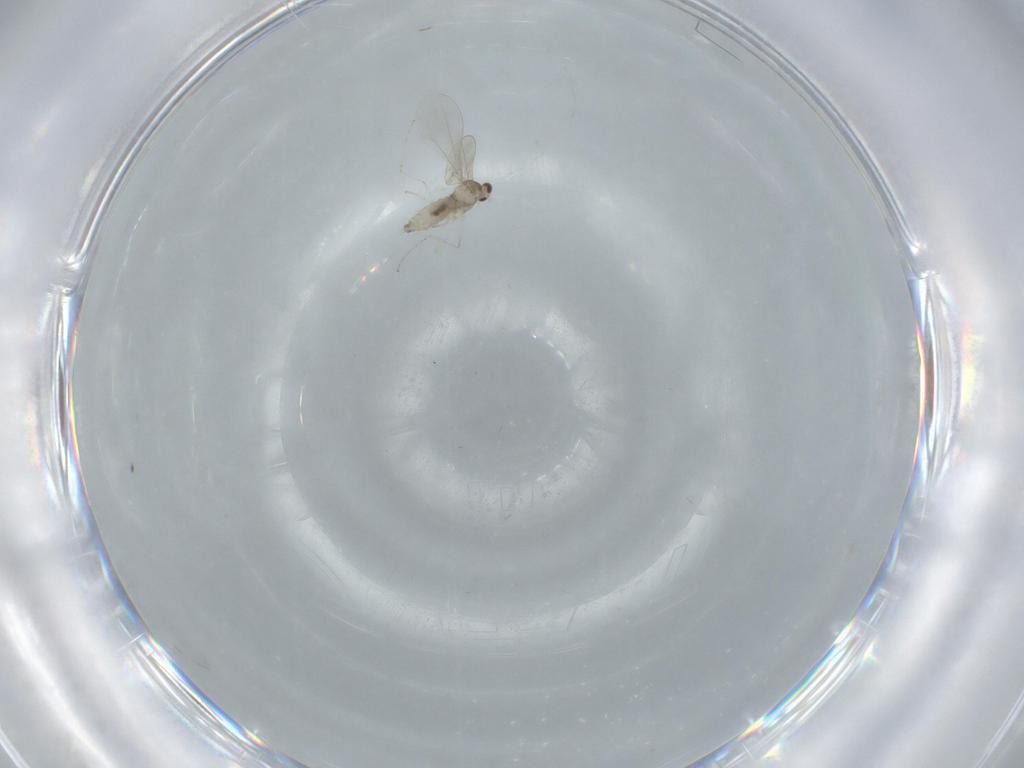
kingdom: Animalia
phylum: Arthropoda
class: Insecta
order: Diptera
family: Cecidomyiidae
